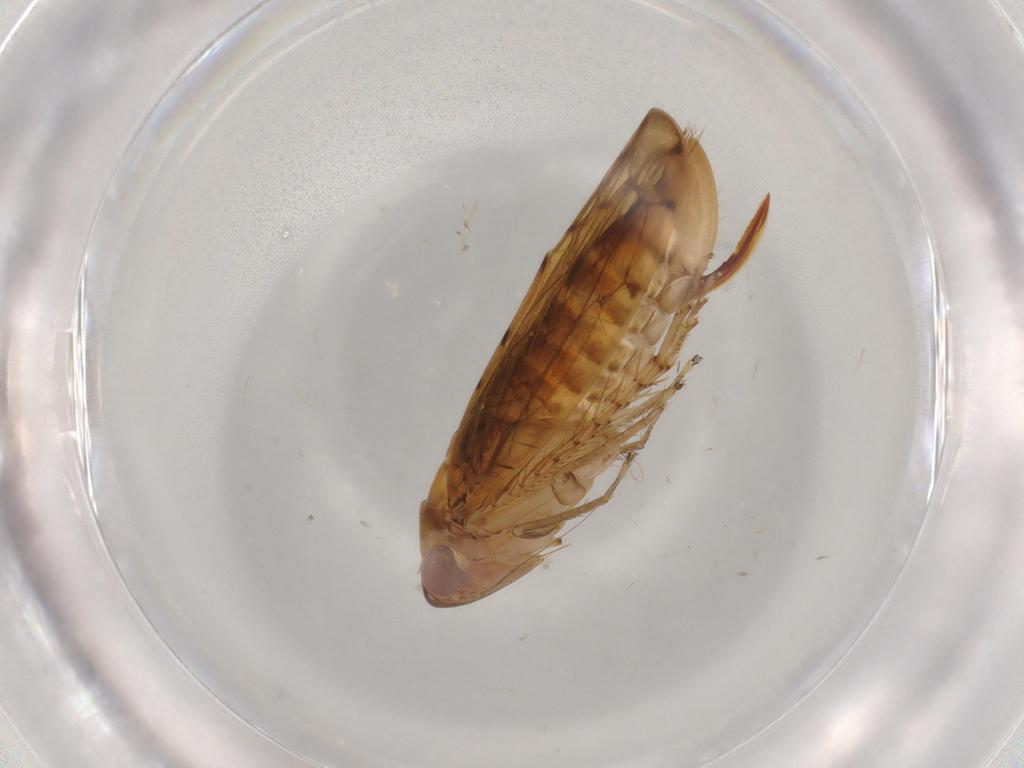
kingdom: Animalia
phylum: Arthropoda
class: Insecta
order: Hemiptera
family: Cicadellidae
